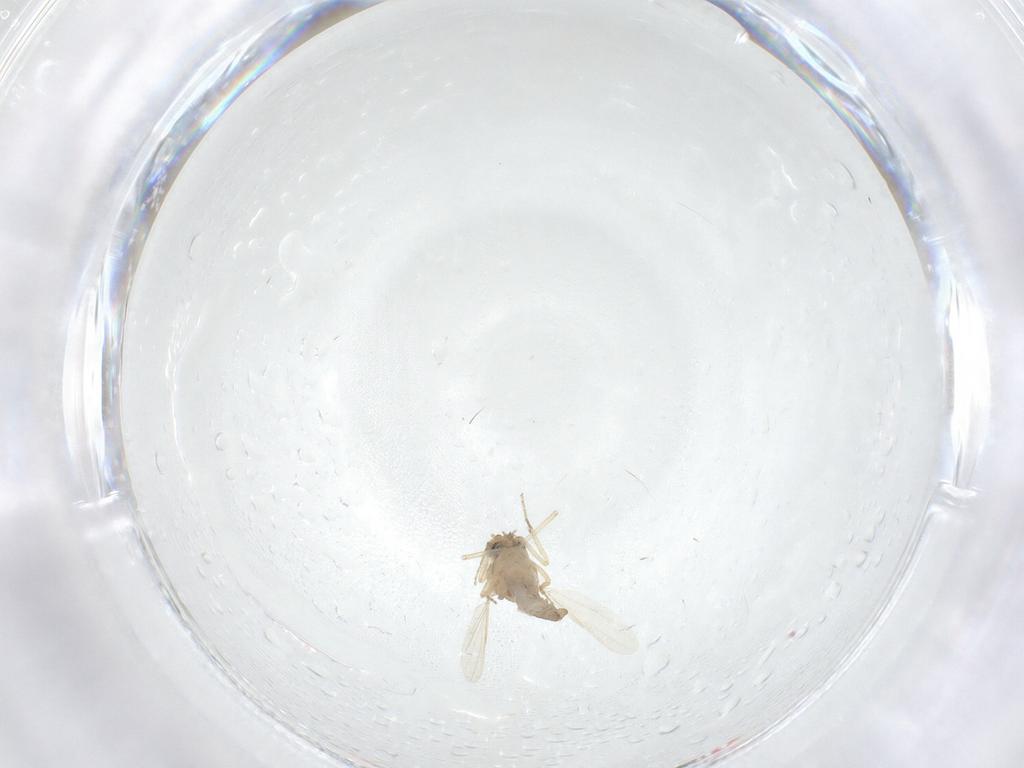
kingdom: Animalia
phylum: Arthropoda
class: Insecta
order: Diptera
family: Ceratopogonidae
